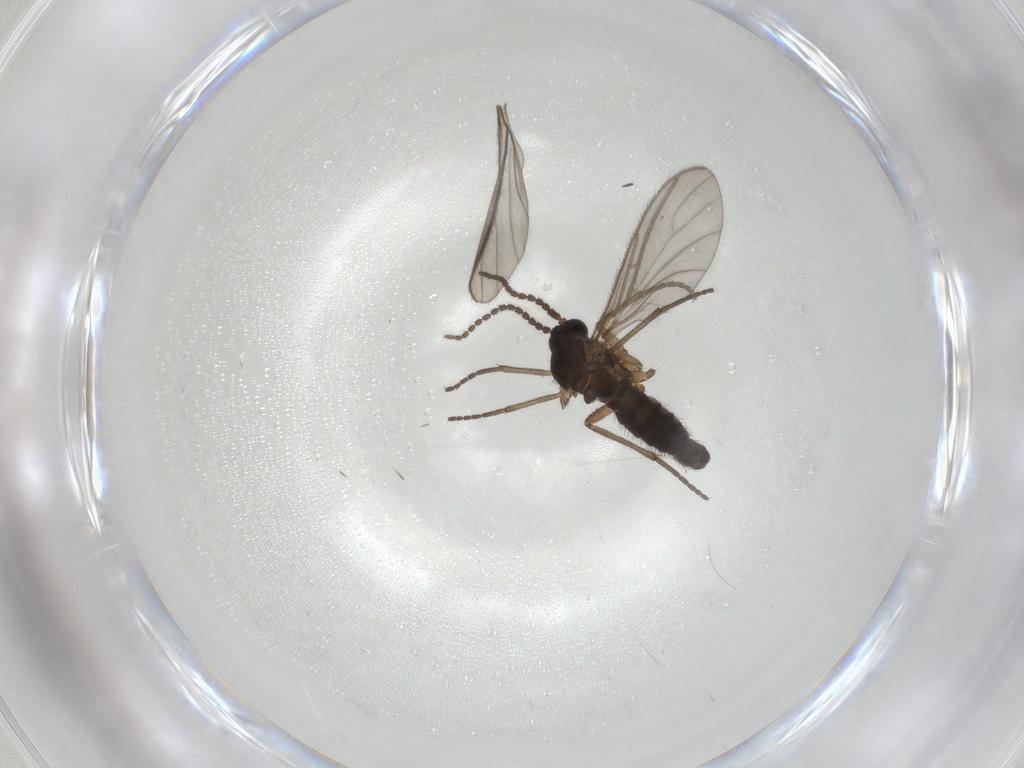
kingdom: Animalia
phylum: Arthropoda
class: Insecta
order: Diptera
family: Sciaridae
